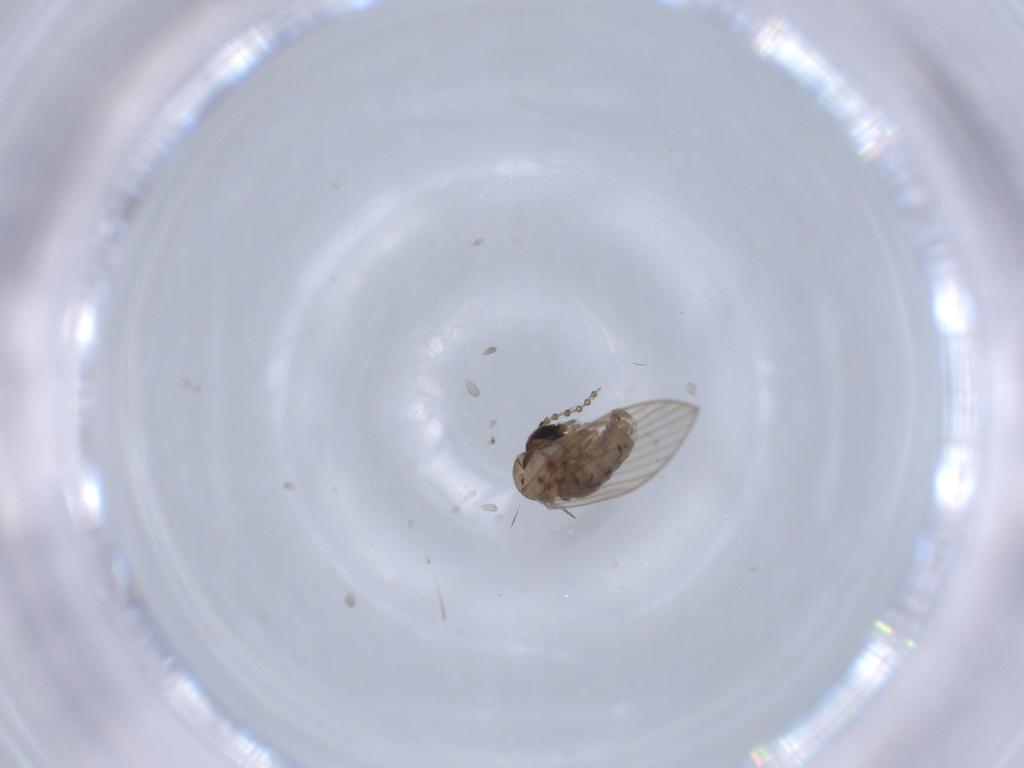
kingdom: Animalia
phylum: Arthropoda
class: Insecta
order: Diptera
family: Psychodidae
